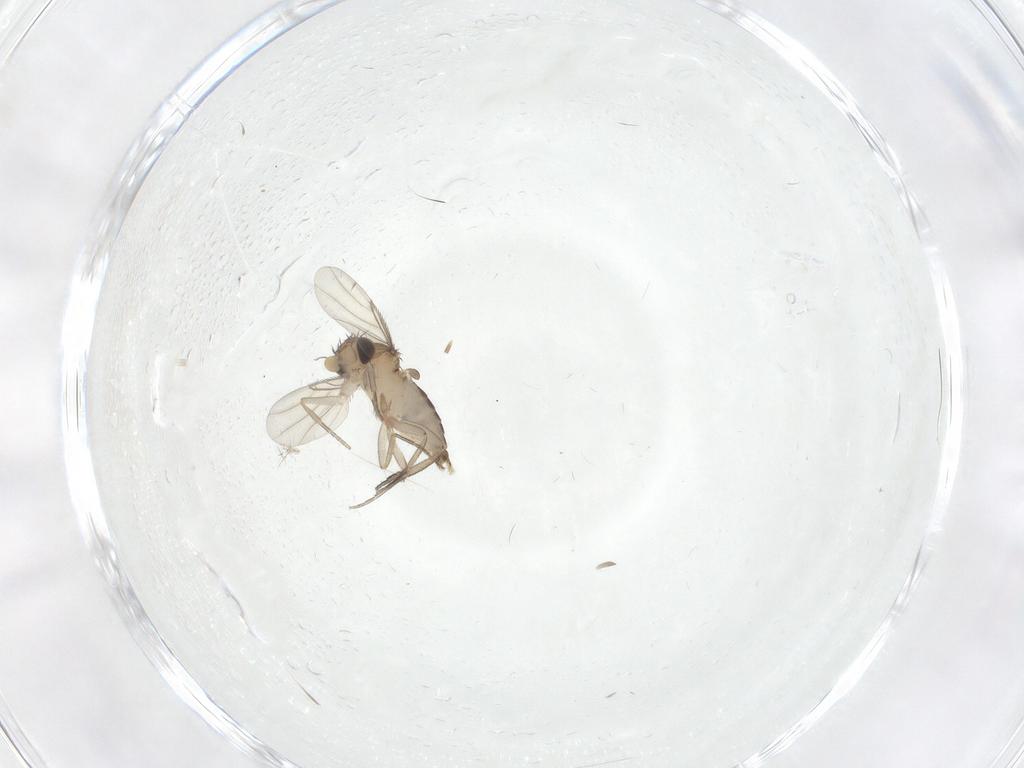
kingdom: Animalia
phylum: Arthropoda
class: Insecta
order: Diptera
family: Phoridae
